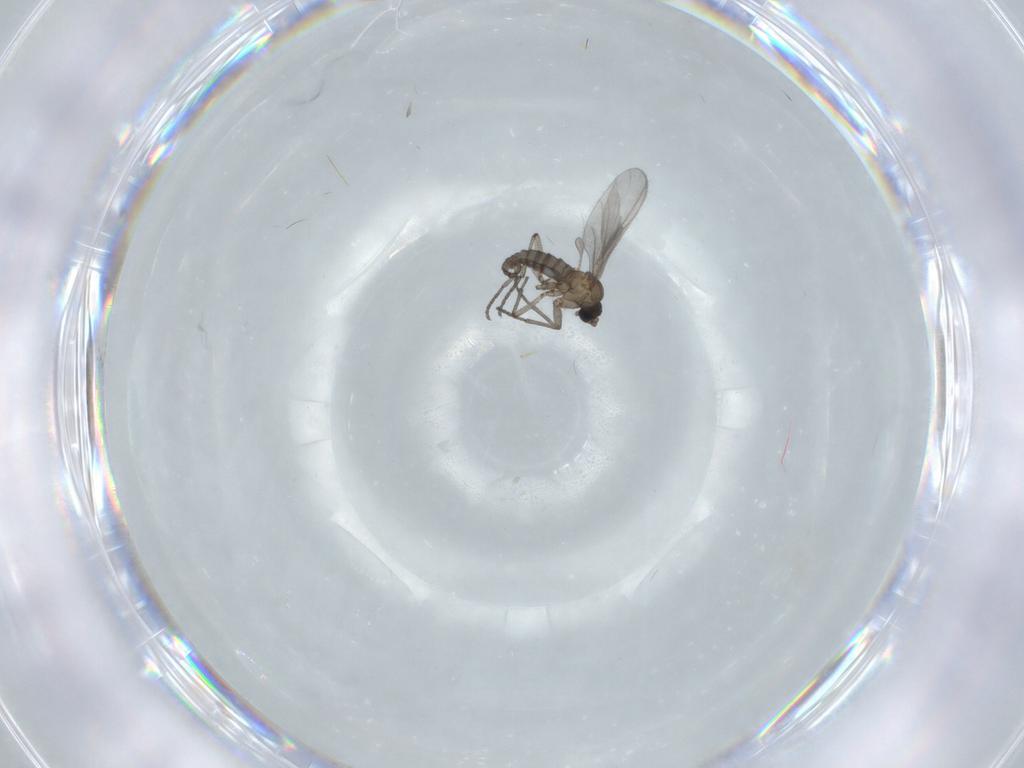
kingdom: Animalia
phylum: Arthropoda
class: Insecta
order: Diptera
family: Sciaridae
